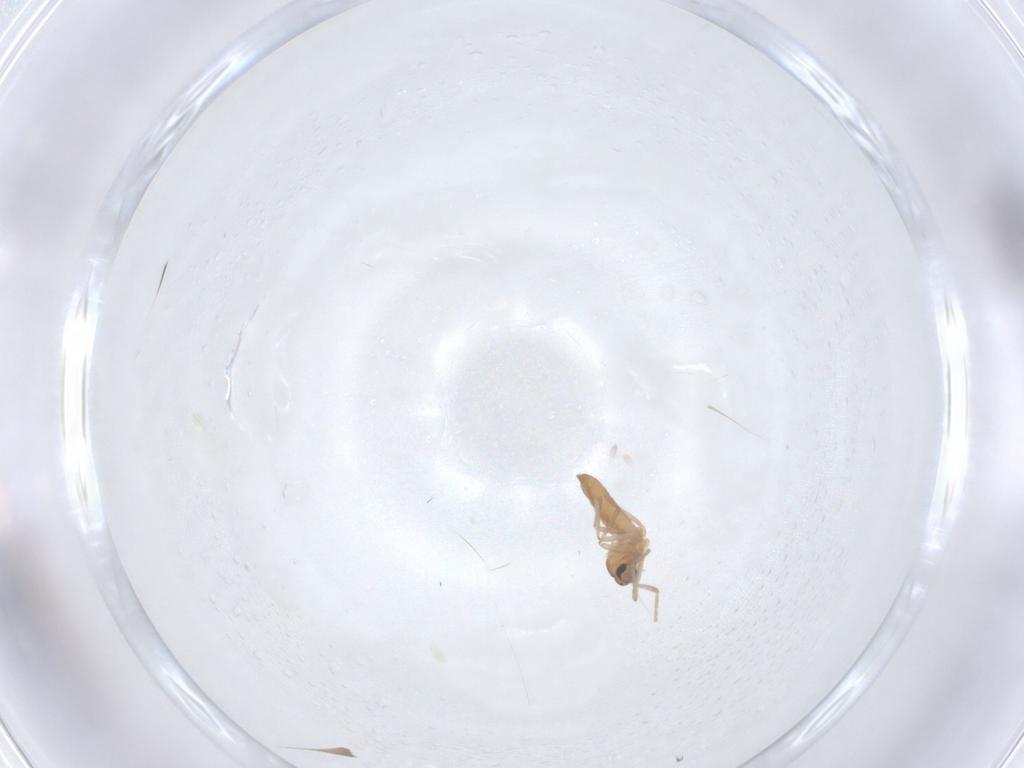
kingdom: Animalia
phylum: Arthropoda
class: Insecta
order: Diptera
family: Cecidomyiidae
